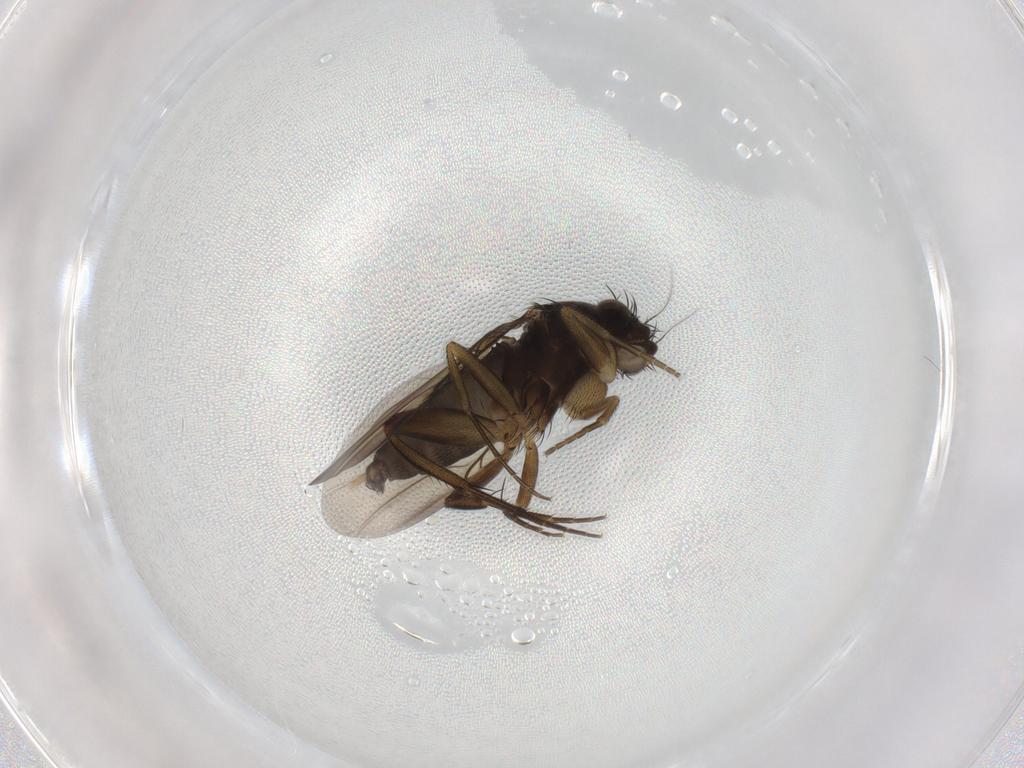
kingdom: Animalia
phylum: Arthropoda
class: Insecta
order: Diptera
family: Phoridae
